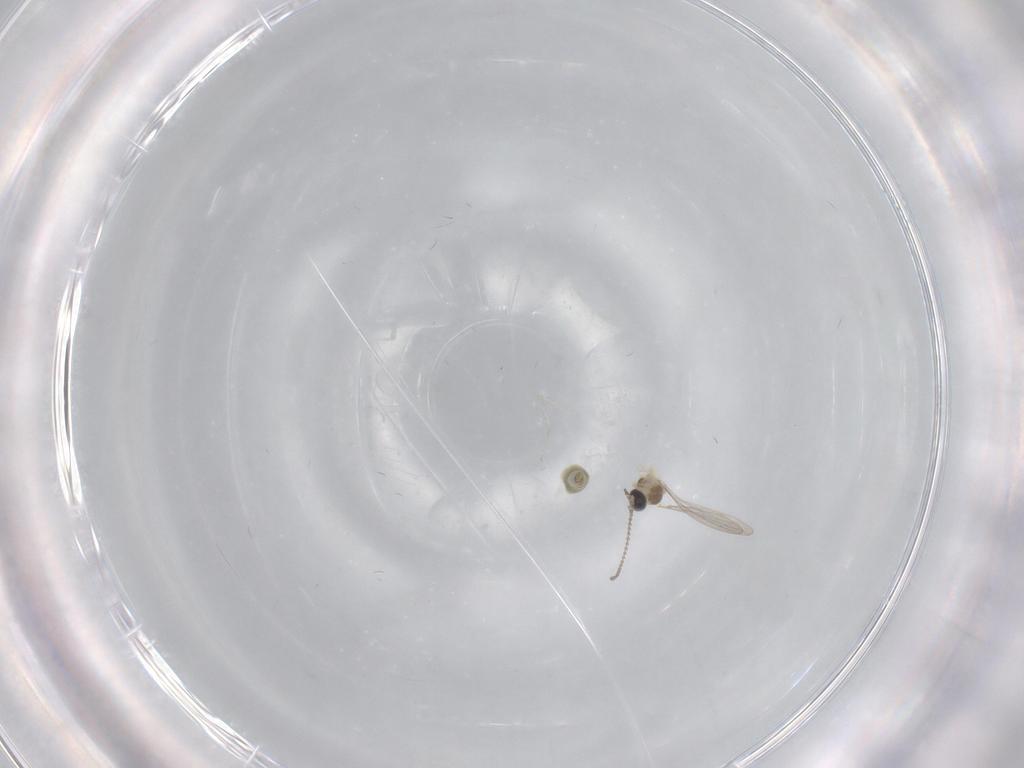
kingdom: Animalia
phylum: Arthropoda
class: Insecta
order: Diptera
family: Cecidomyiidae
